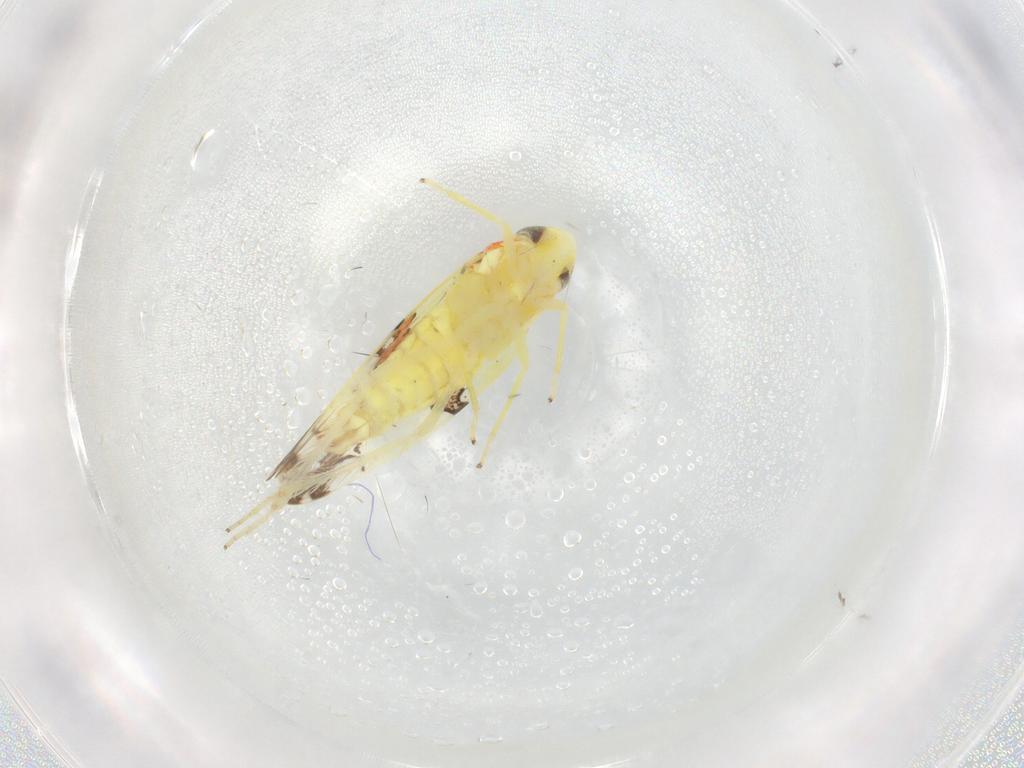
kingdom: Animalia
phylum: Arthropoda
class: Insecta
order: Hemiptera
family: Cicadellidae
